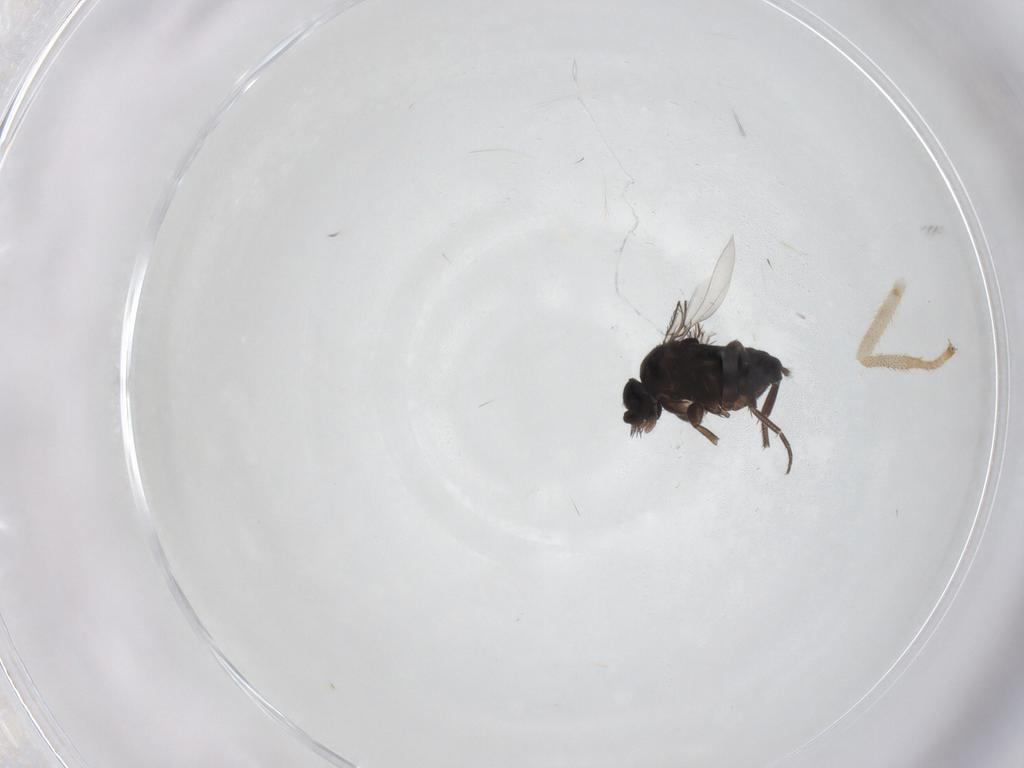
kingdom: Animalia
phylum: Arthropoda
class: Insecta
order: Diptera
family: Phoridae
